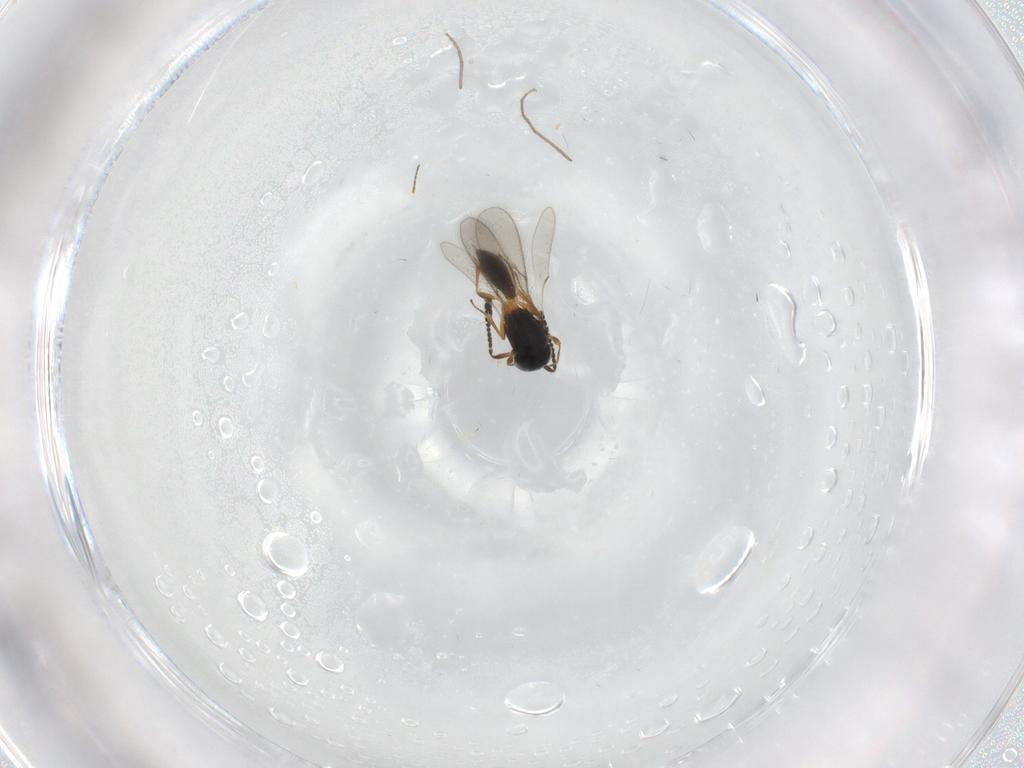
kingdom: Animalia
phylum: Arthropoda
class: Insecta
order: Hymenoptera
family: Scelionidae
